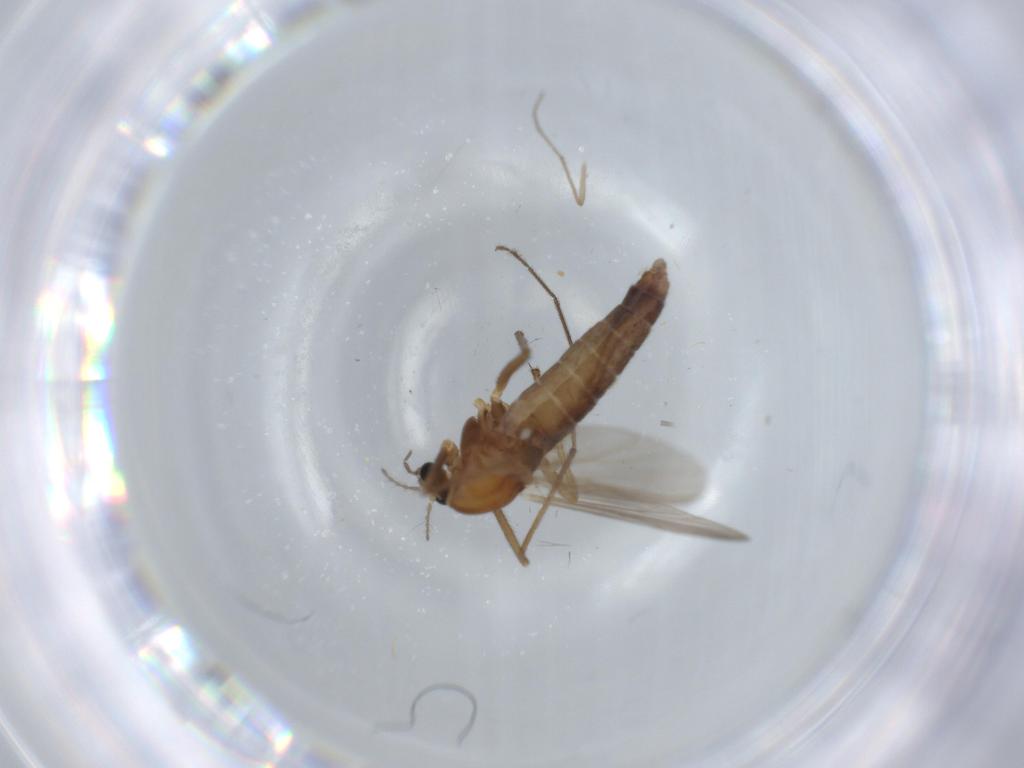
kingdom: Animalia
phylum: Arthropoda
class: Insecta
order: Diptera
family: Chironomidae
